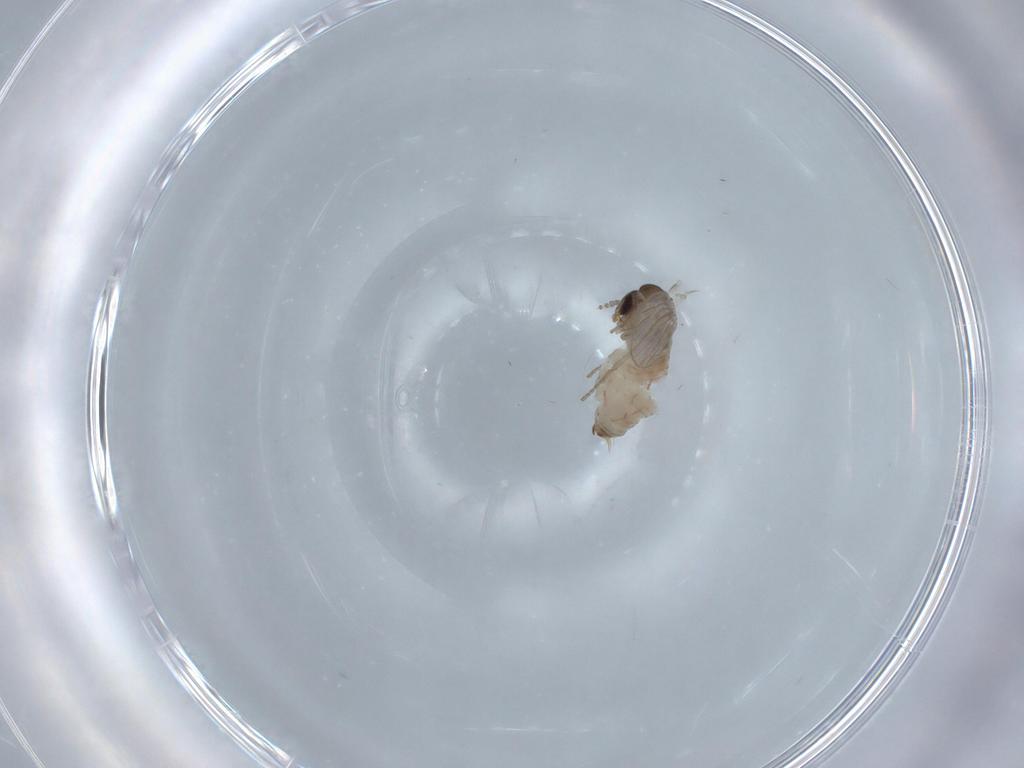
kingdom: Animalia
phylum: Arthropoda
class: Insecta
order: Diptera
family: Psychodidae
